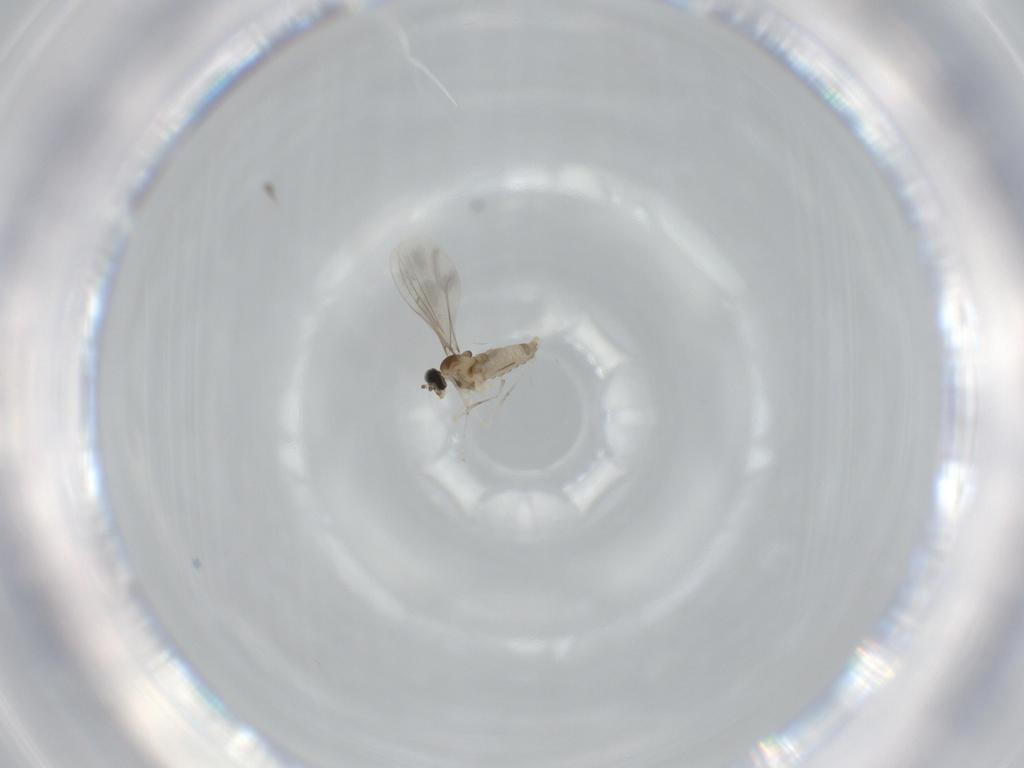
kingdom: Animalia
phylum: Arthropoda
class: Insecta
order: Diptera
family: Cecidomyiidae
